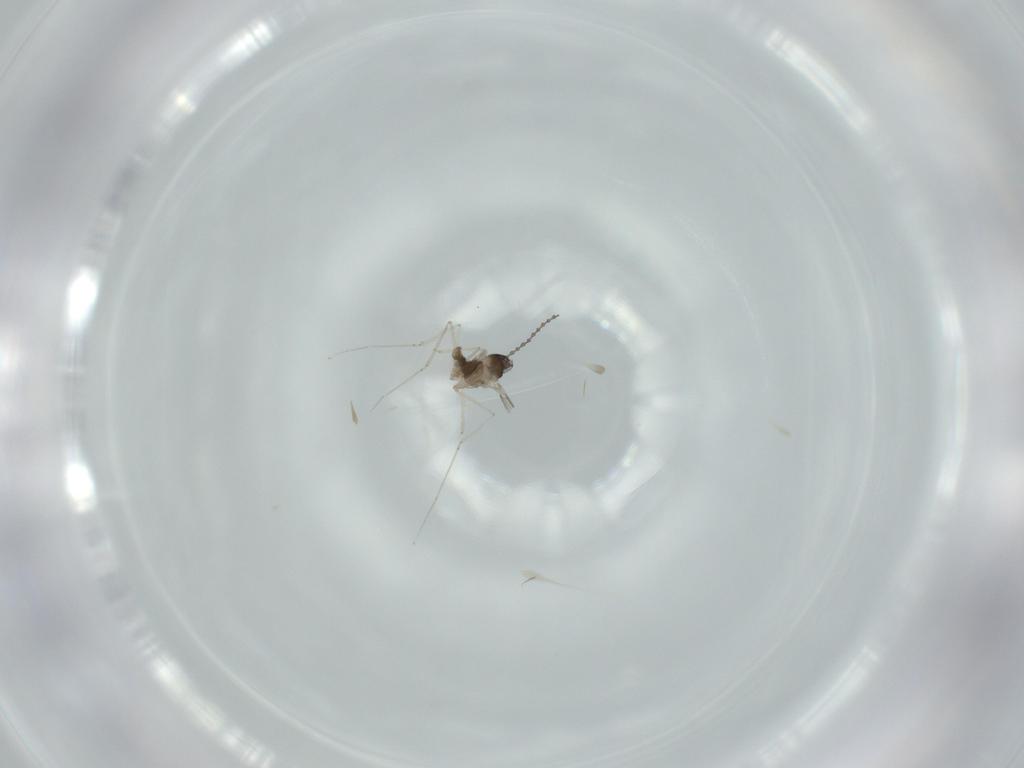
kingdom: Animalia
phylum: Arthropoda
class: Insecta
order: Diptera
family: Cecidomyiidae
